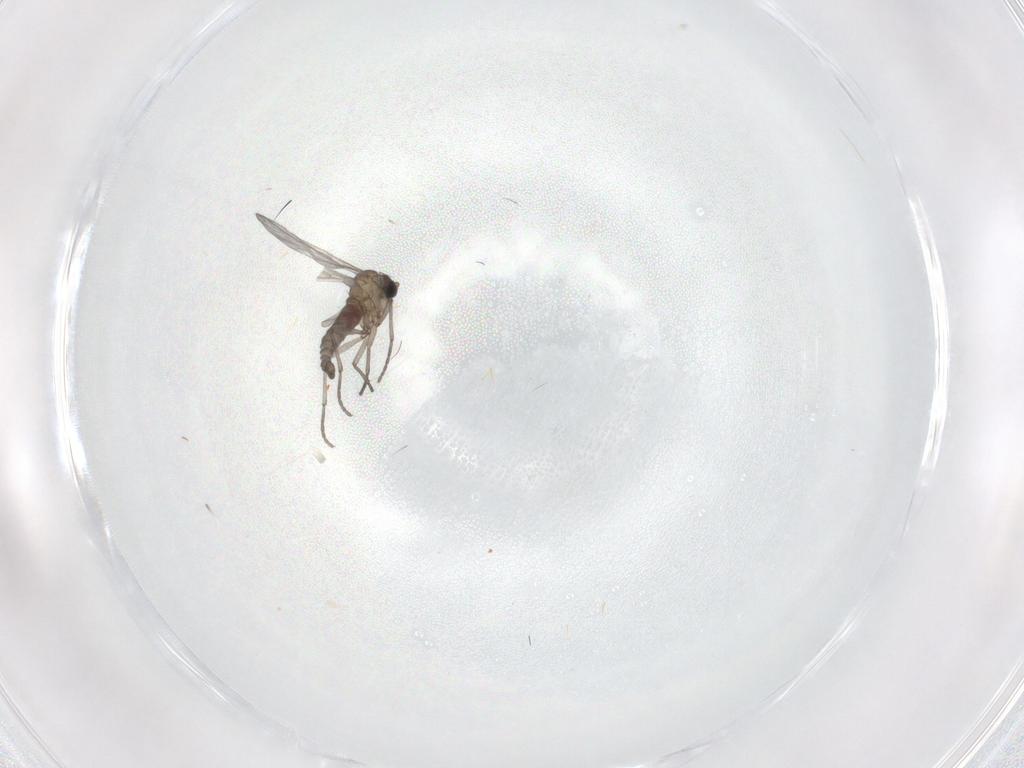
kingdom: Animalia
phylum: Arthropoda
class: Insecta
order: Diptera
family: Sciaridae
